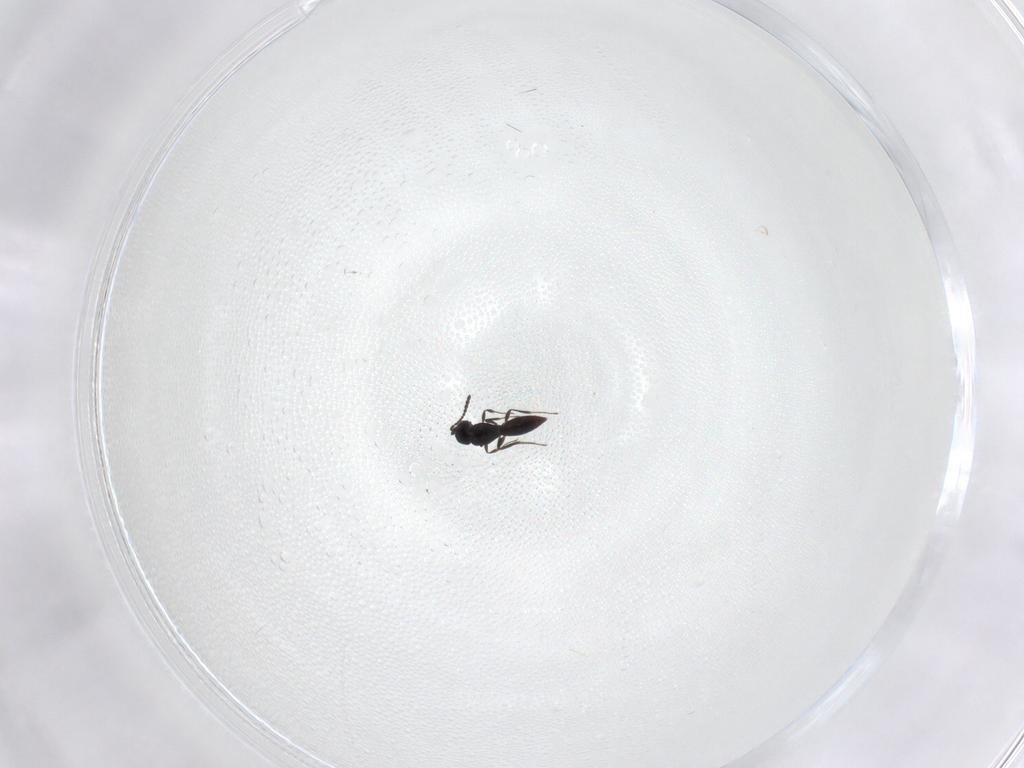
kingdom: Animalia
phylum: Arthropoda
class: Insecta
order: Hymenoptera
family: Scelionidae
